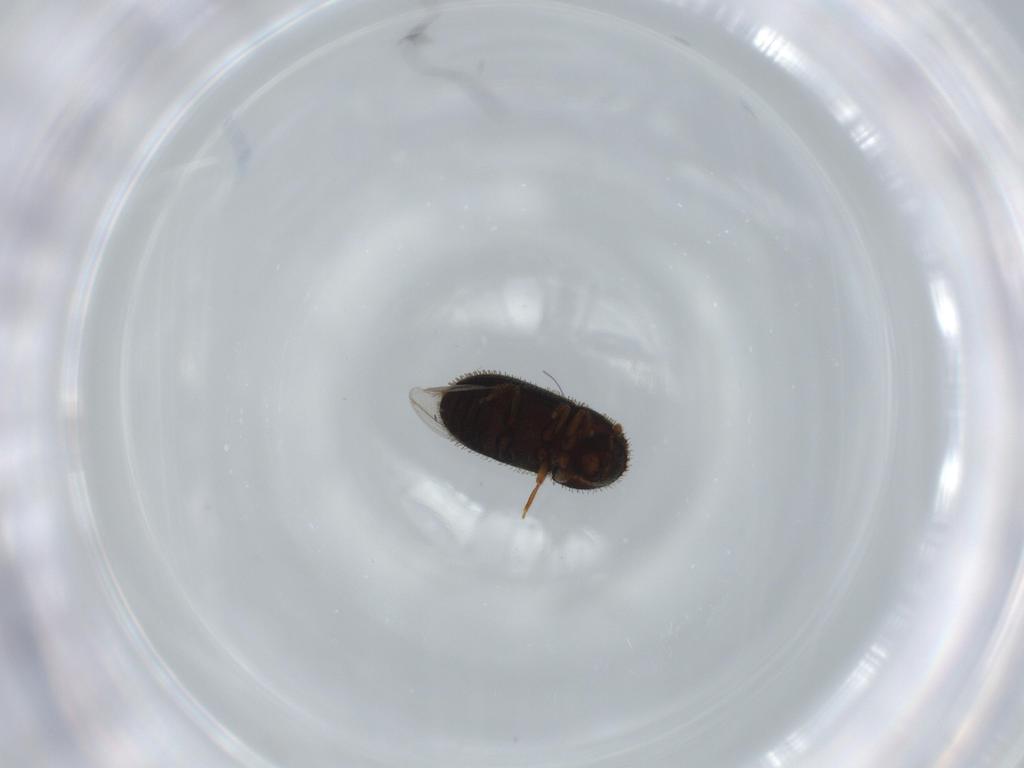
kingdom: Animalia
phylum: Arthropoda
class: Insecta
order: Coleoptera
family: Curculionidae
